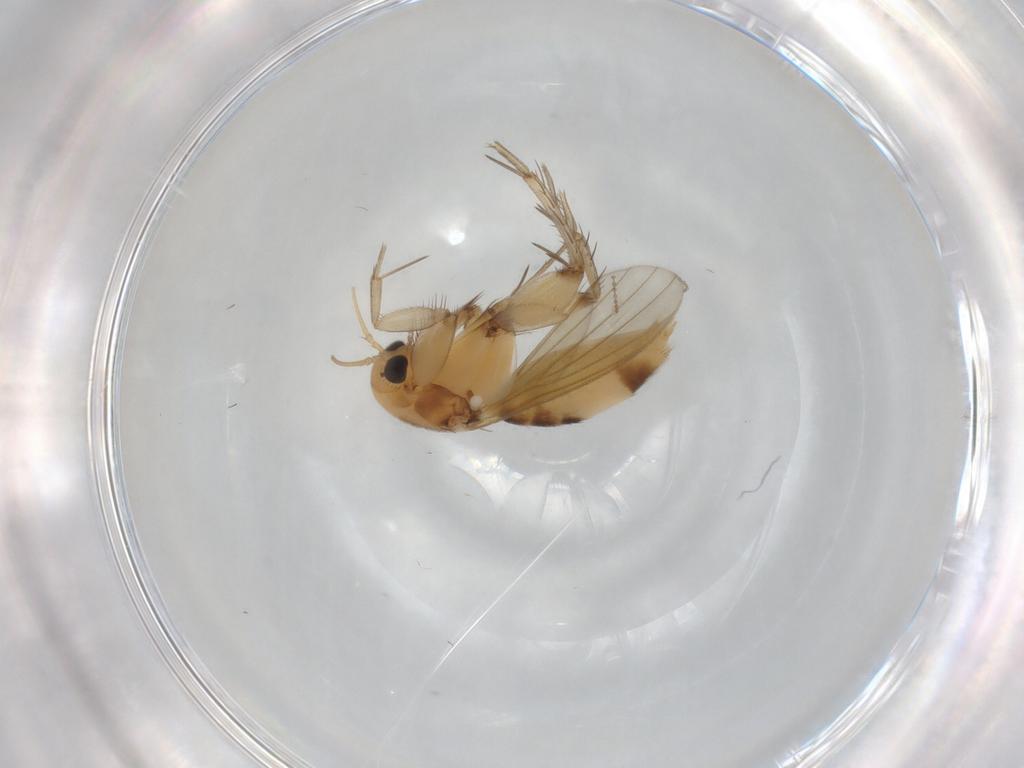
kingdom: Animalia
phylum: Arthropoda
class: Insecta
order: Diptera
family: Mycetophilidae
